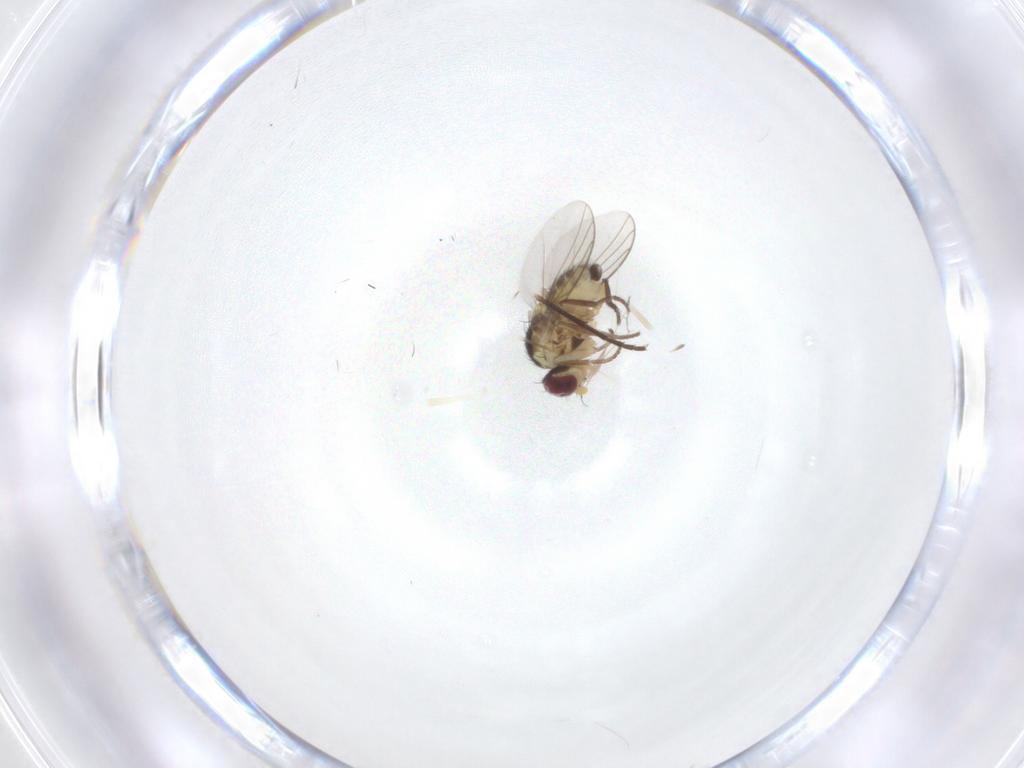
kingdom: Animalia
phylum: Arthropoda
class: Insecta
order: Diptera
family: Agromyzidae
